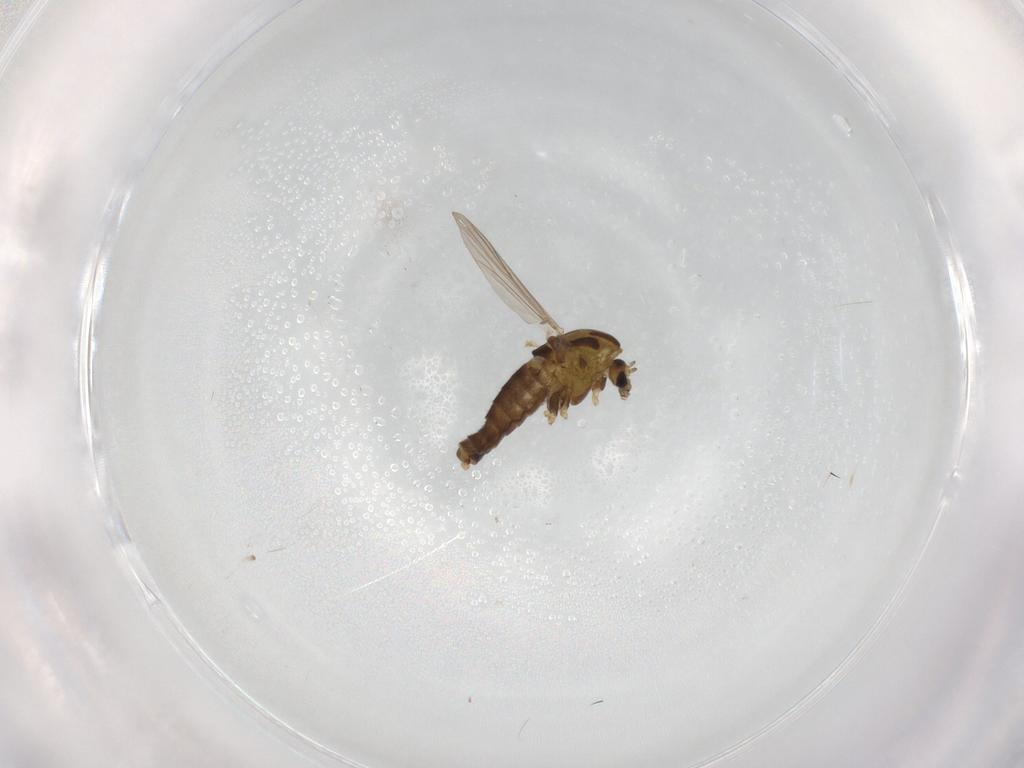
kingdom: Animalia
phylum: Arthropoda
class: Insecta
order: Diptera
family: Chironomidae
